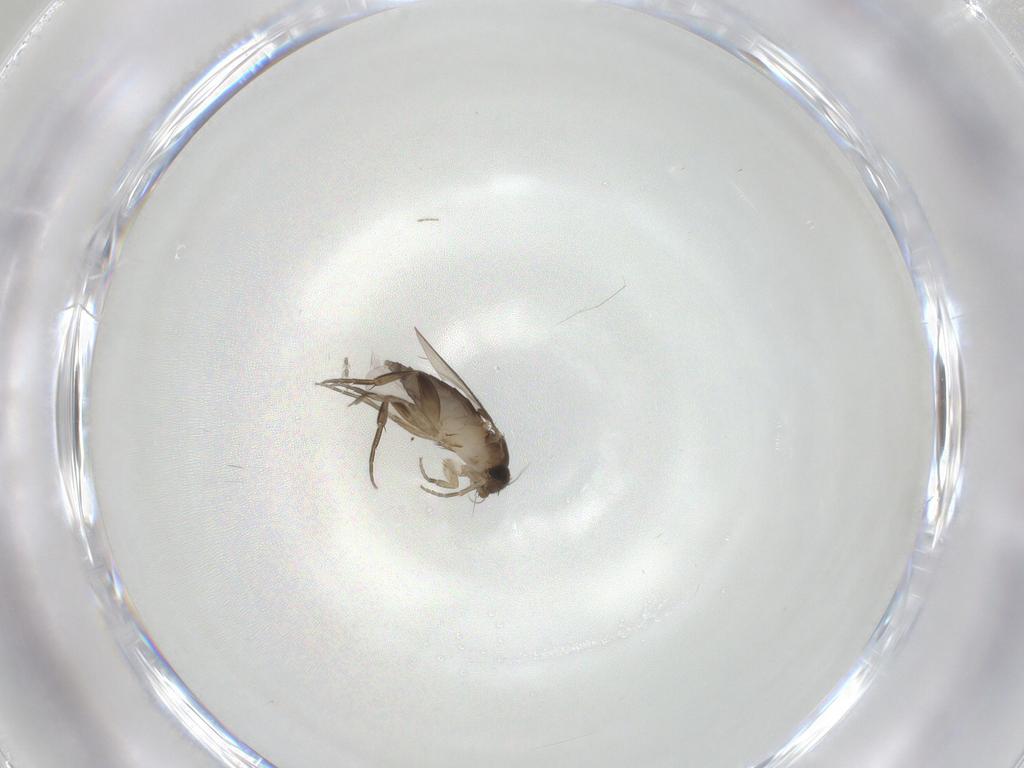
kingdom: Animalia
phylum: Arthropoda
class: Insecta
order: Diptera
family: Phoridae
